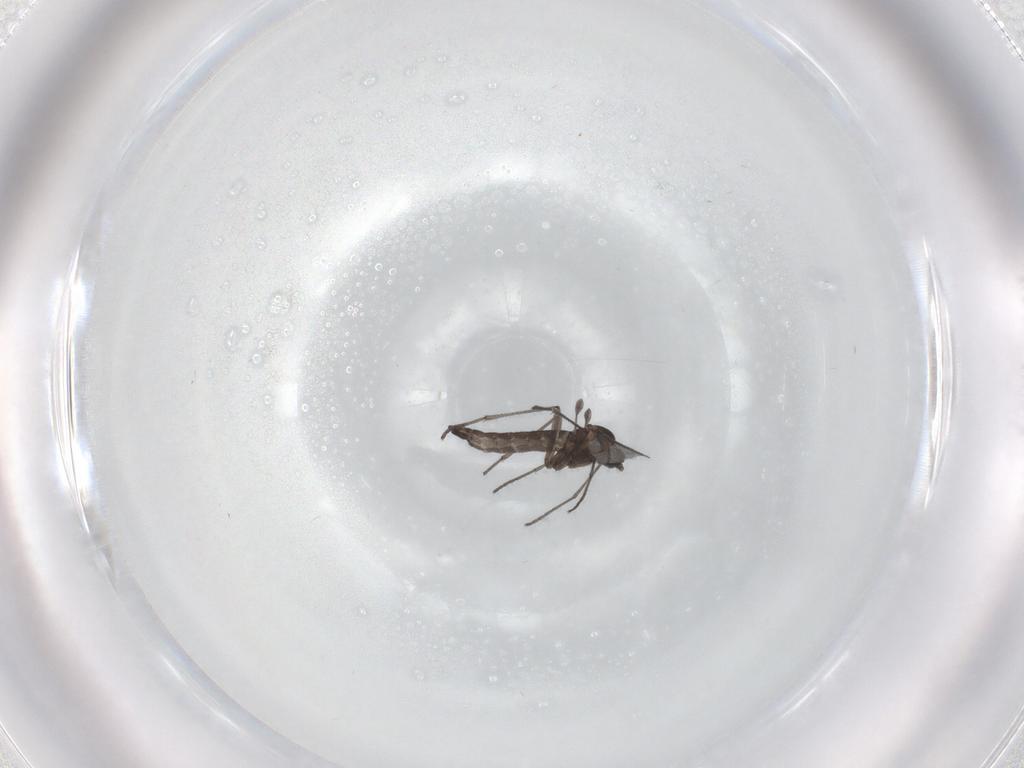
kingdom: Animalia
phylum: Arthropoda
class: Insecta
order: Diptera
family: Sciaridae
